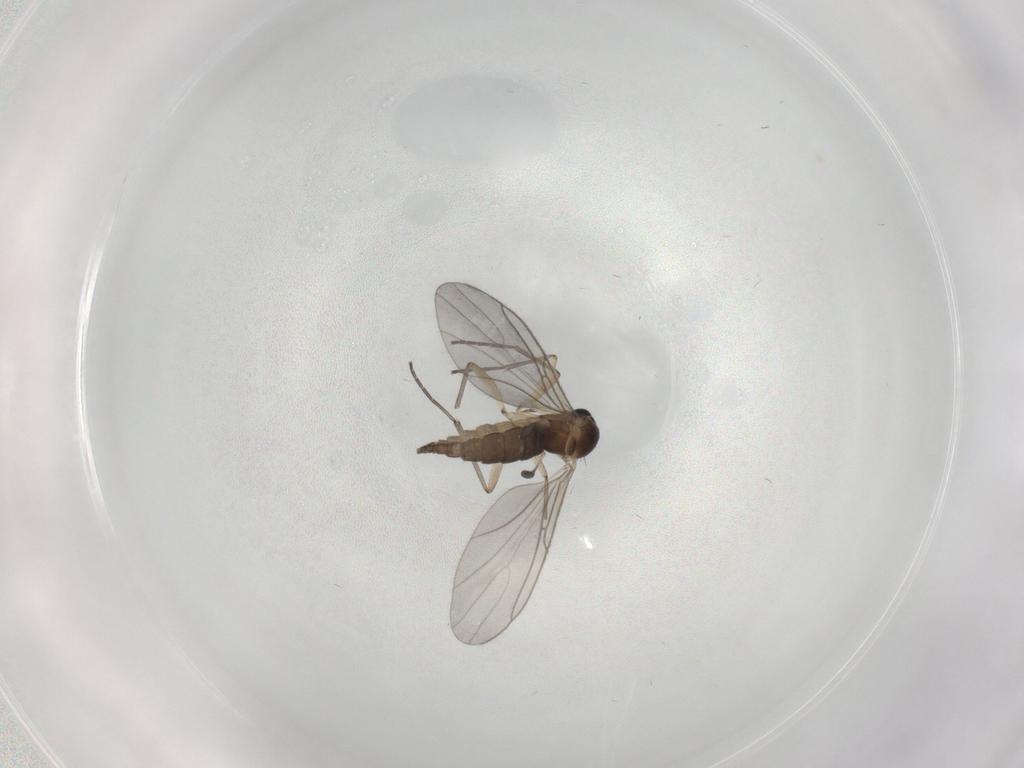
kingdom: Animalia
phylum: Arthropoda
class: Insecta
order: Diptera
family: Sciaridae
